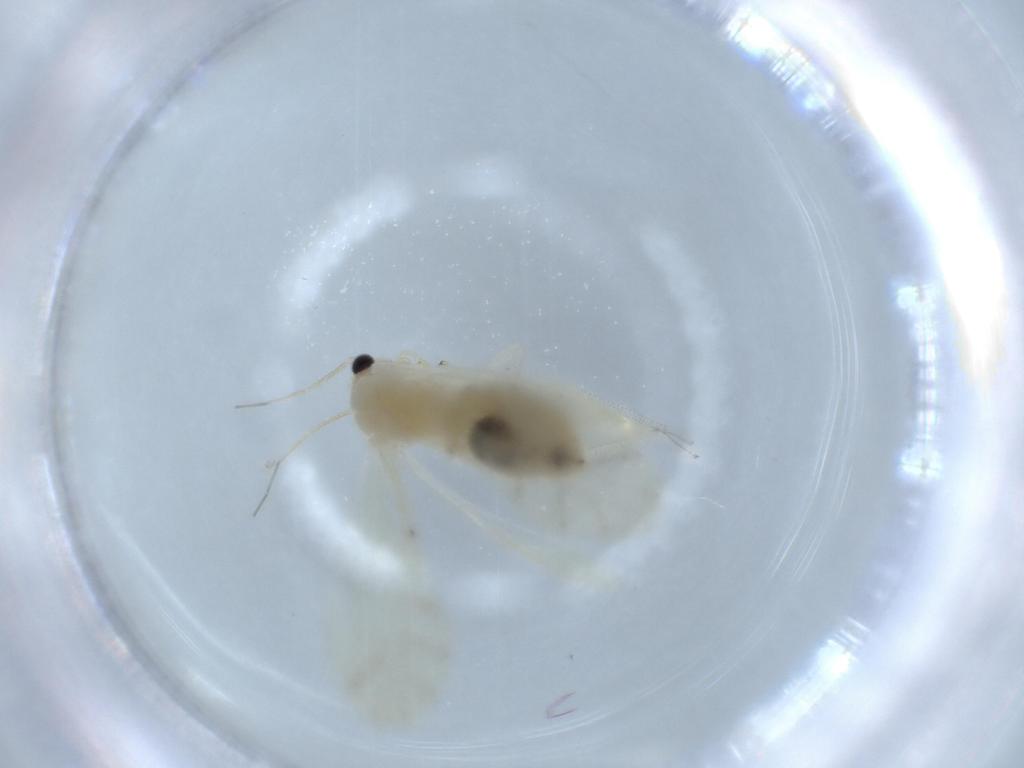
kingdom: Animalia
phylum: Arthropoda
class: Insecta
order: Psocodea
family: Caeciliusidae
